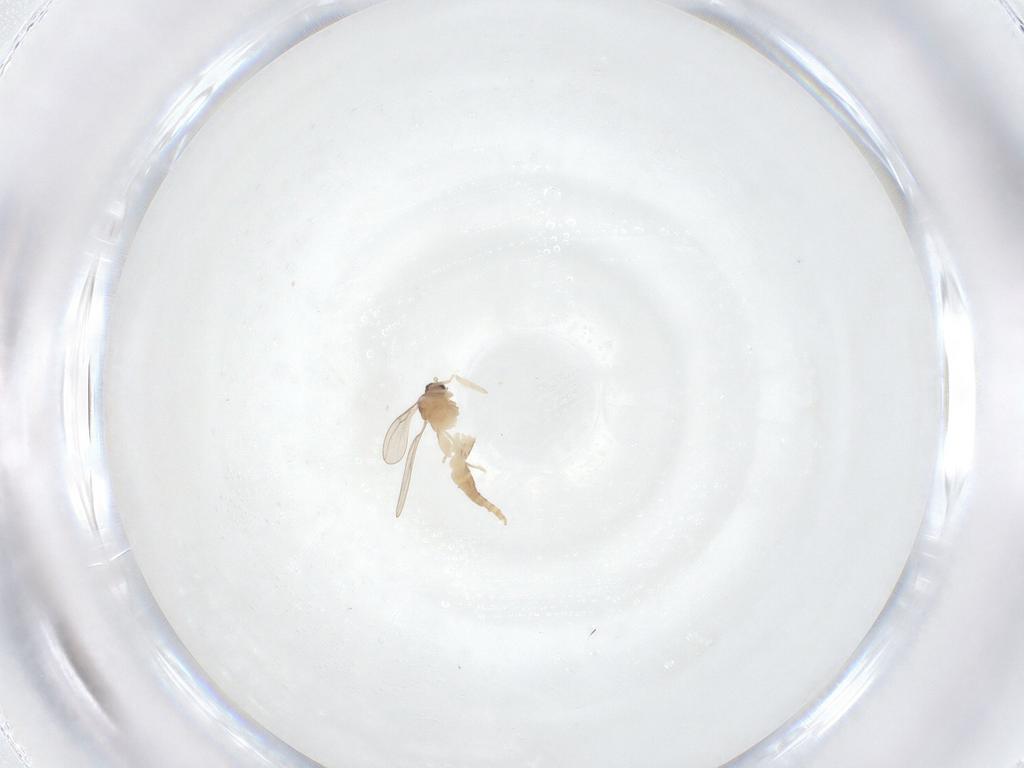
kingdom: Animalia
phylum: Arthropoda
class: Insecta
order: Diptera
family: Cecidomyiidae
